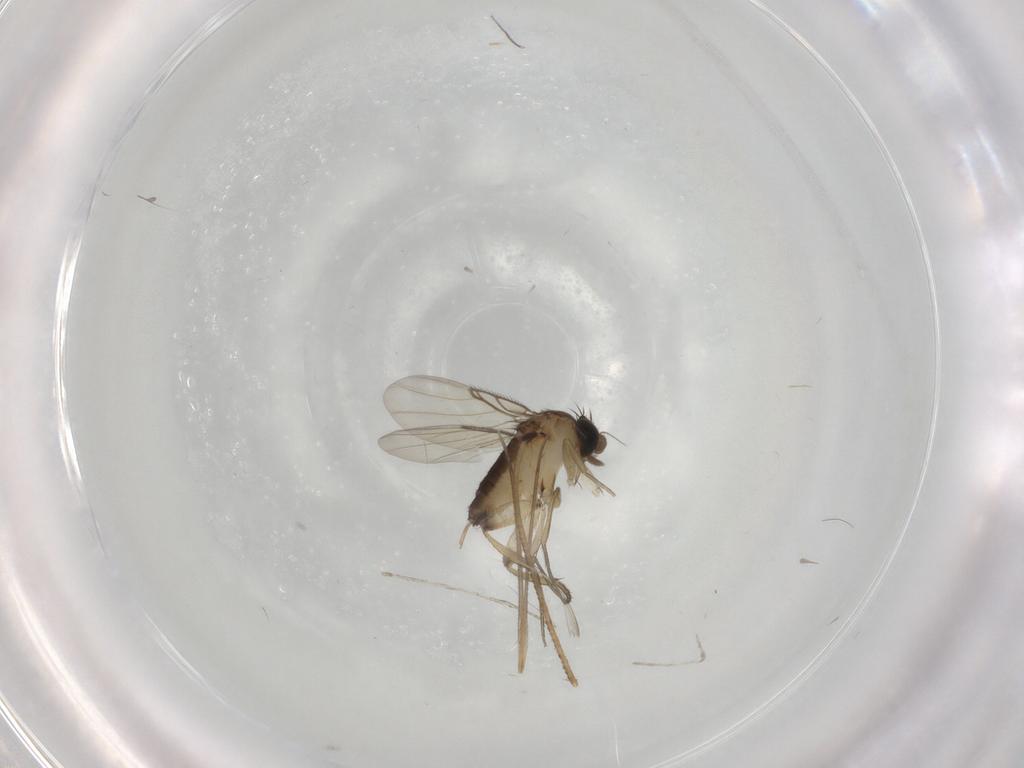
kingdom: Animalia
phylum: Arthropoda
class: Insecta
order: Diptera
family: Phoridae
